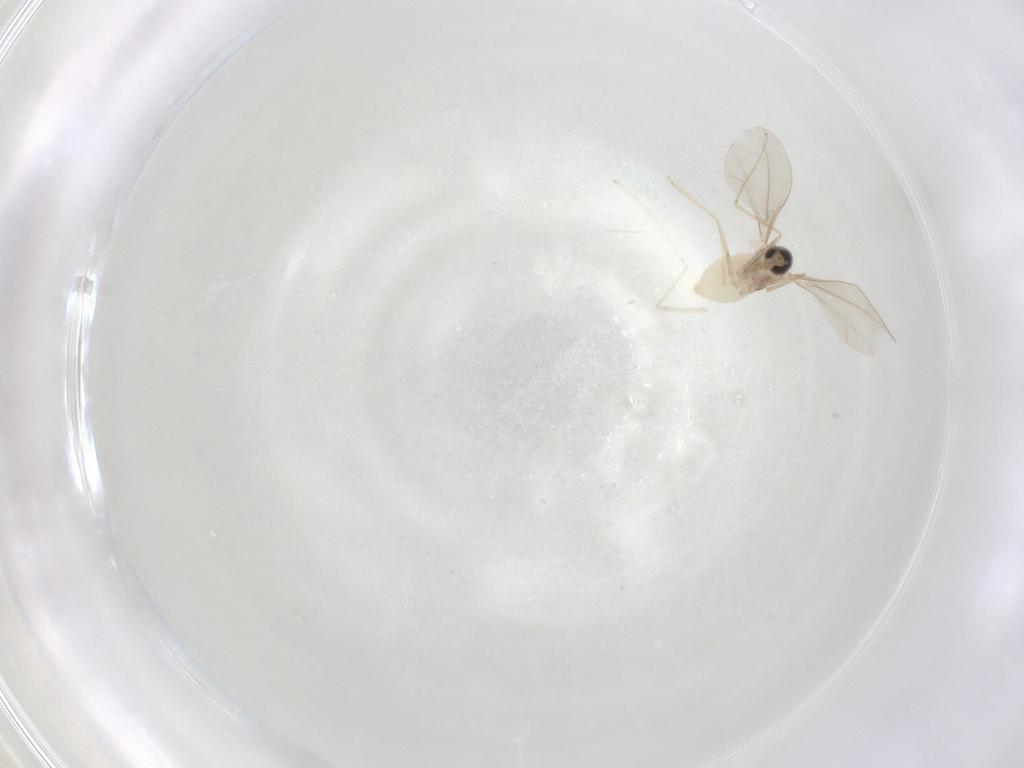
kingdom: Animalia
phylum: Arthropoda
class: Insecta
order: Diptera
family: Cecidomyiidae
